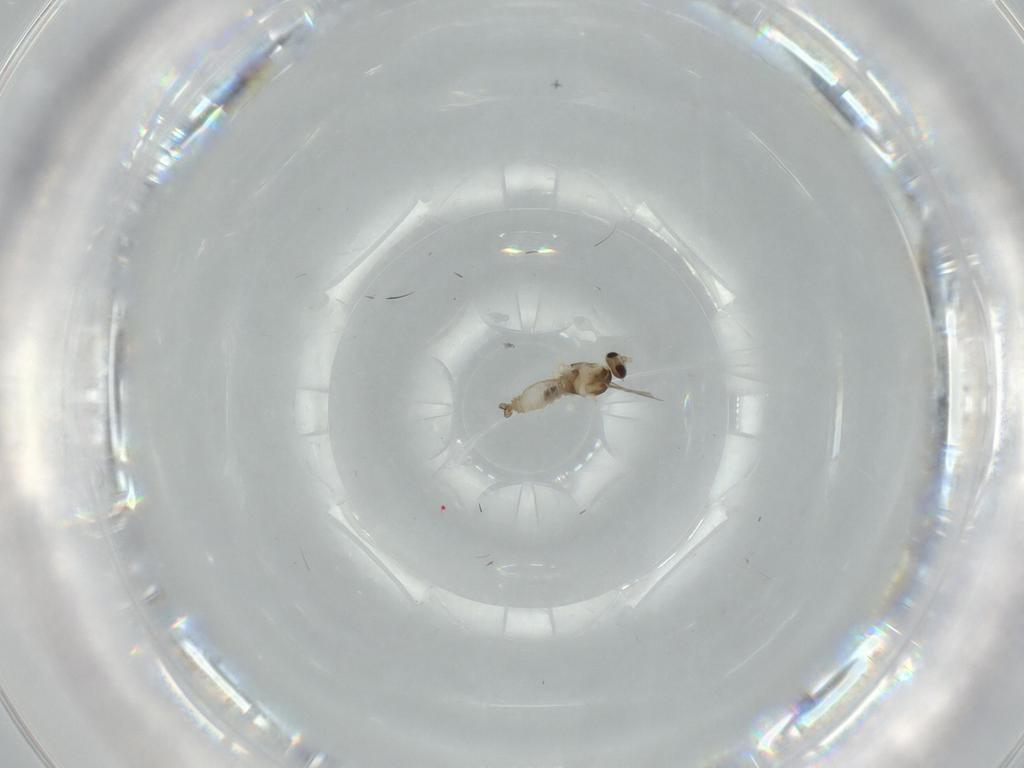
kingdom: Animalia
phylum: Arthropoda
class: Insecta
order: Diptera
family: Cecidomyiidae
